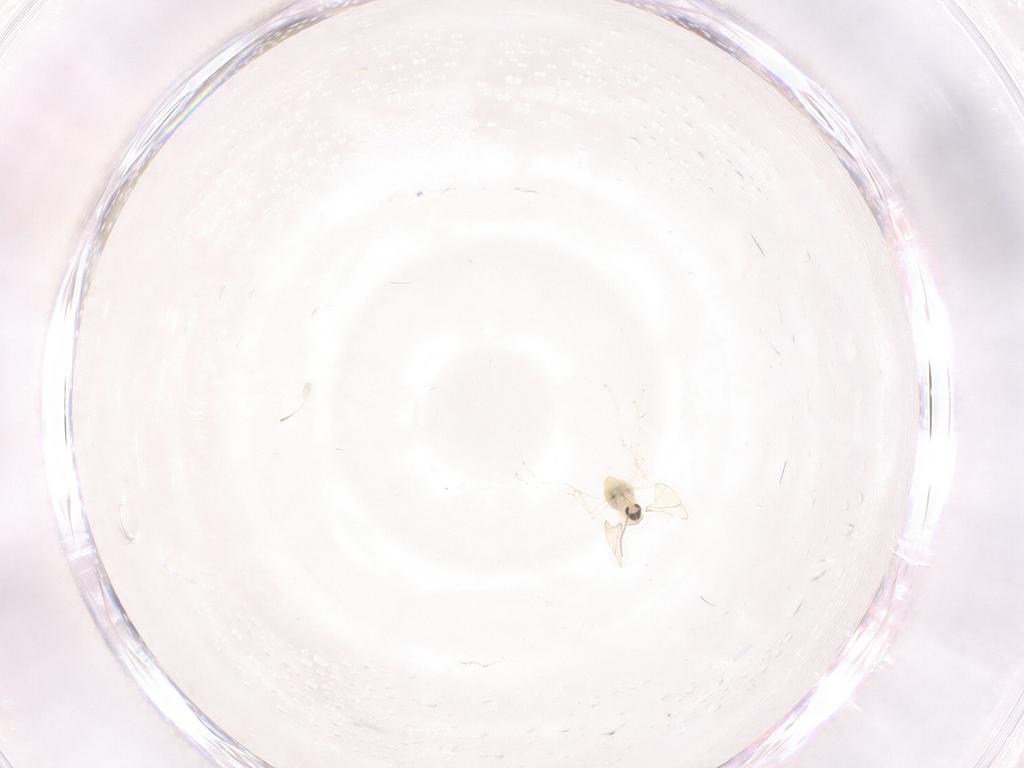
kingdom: Animalia
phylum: Arthropoda
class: Insecta
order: Diptera
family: Cecidomyiidae
